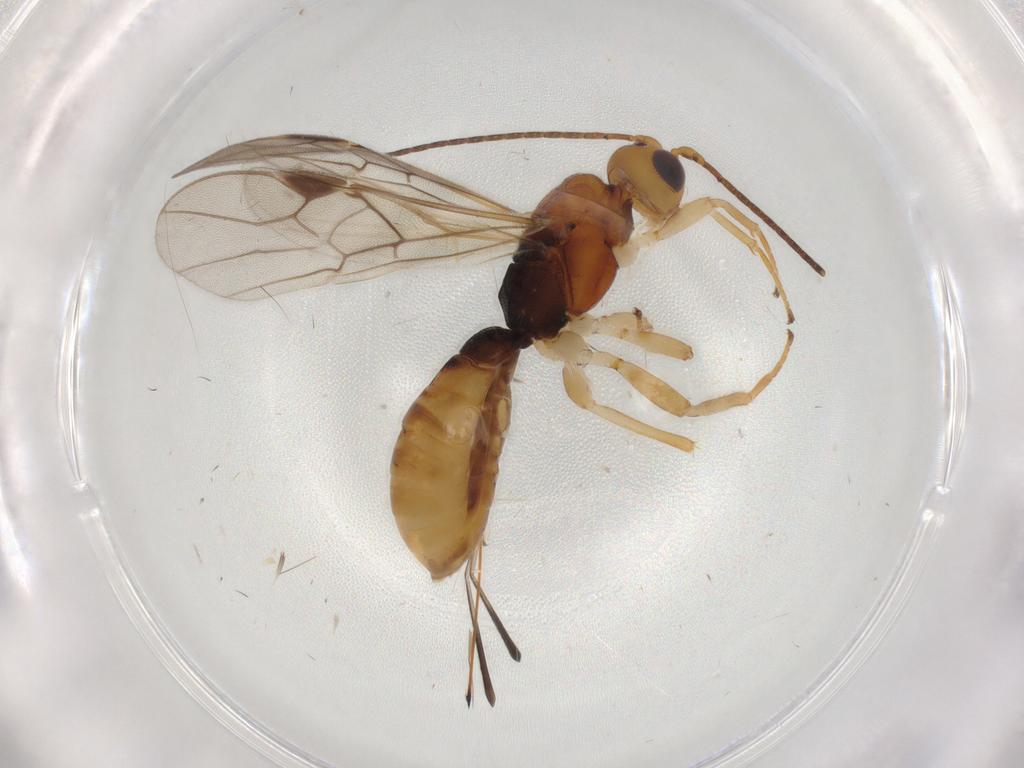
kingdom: Animalia
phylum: Arthropoda
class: Insecta
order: Hymenoptera
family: Braconidae
